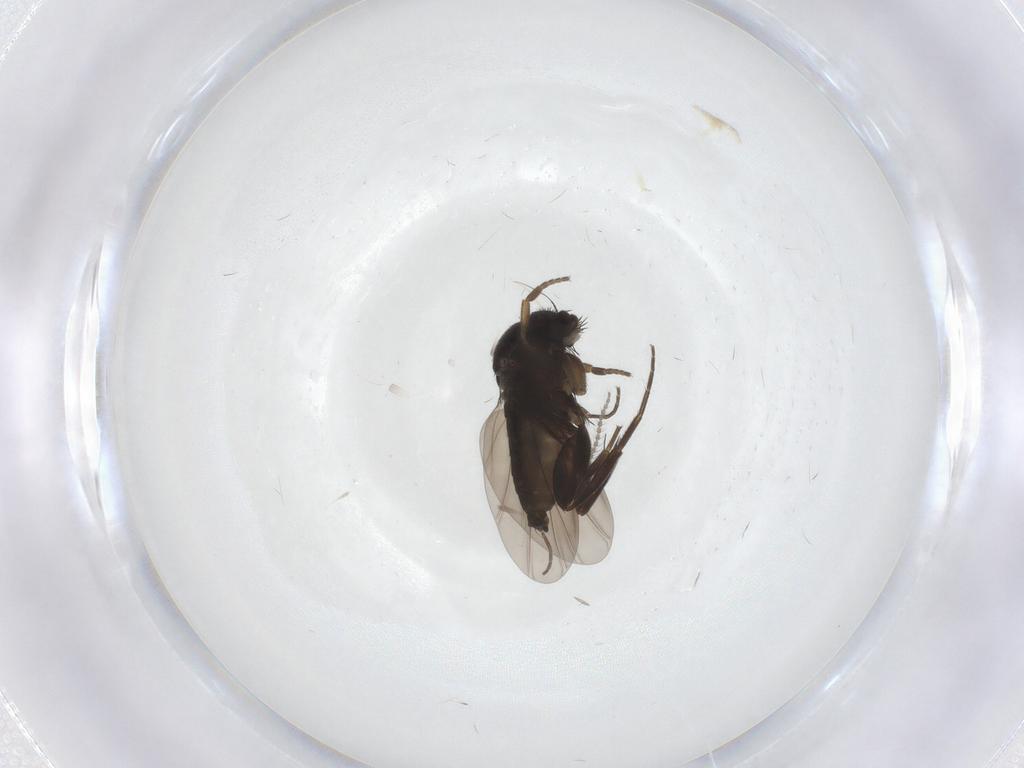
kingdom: Animalia
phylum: Arthropoda
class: Insecta
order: Diptera
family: Phoridae
